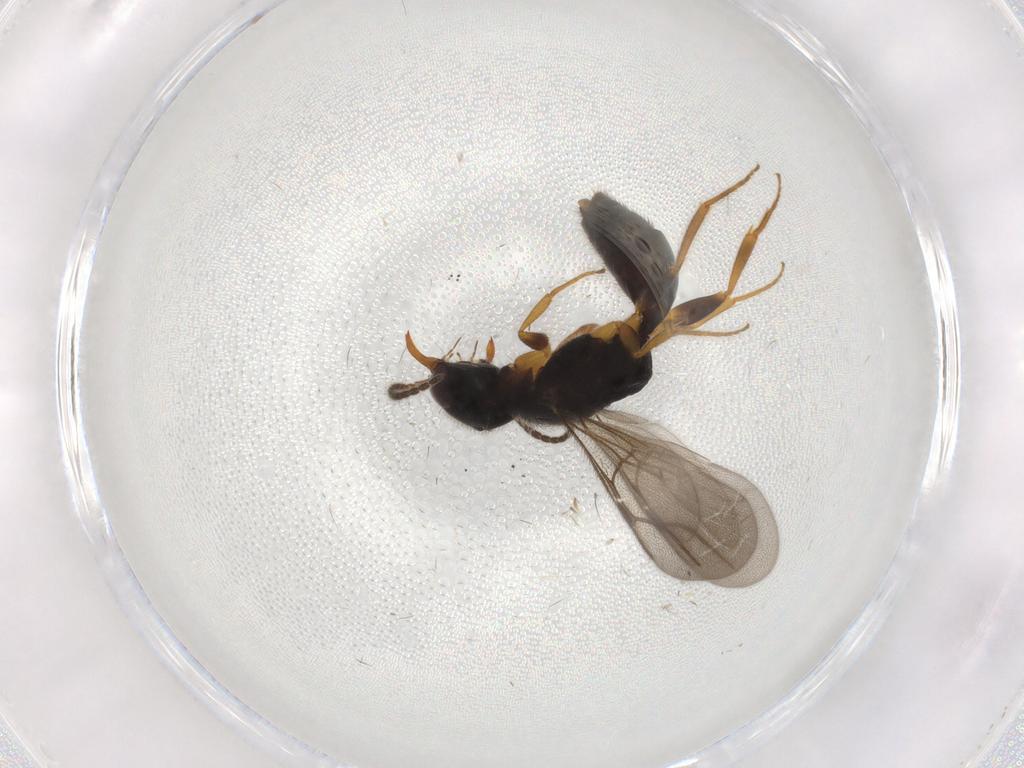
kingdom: Animalia
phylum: Arthropoda
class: Insecta
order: Hymenoptera
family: Bethylidae
